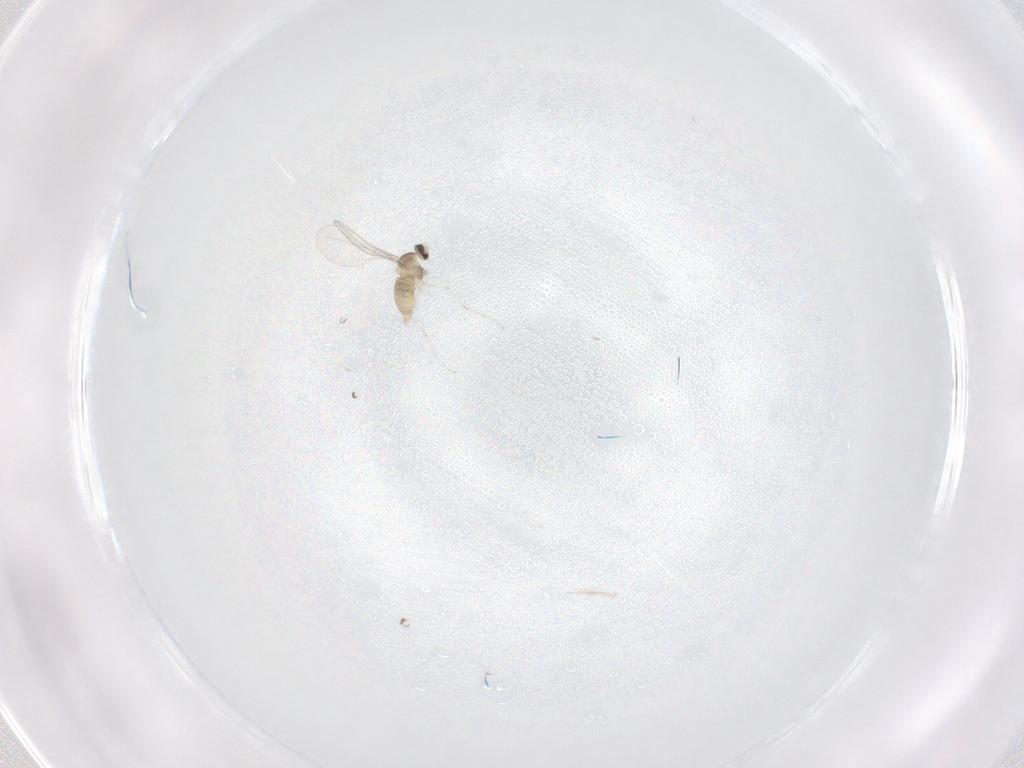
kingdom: Animalia
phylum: Arthropoda
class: Insecta
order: Diptera
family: Cecidomyiidae
